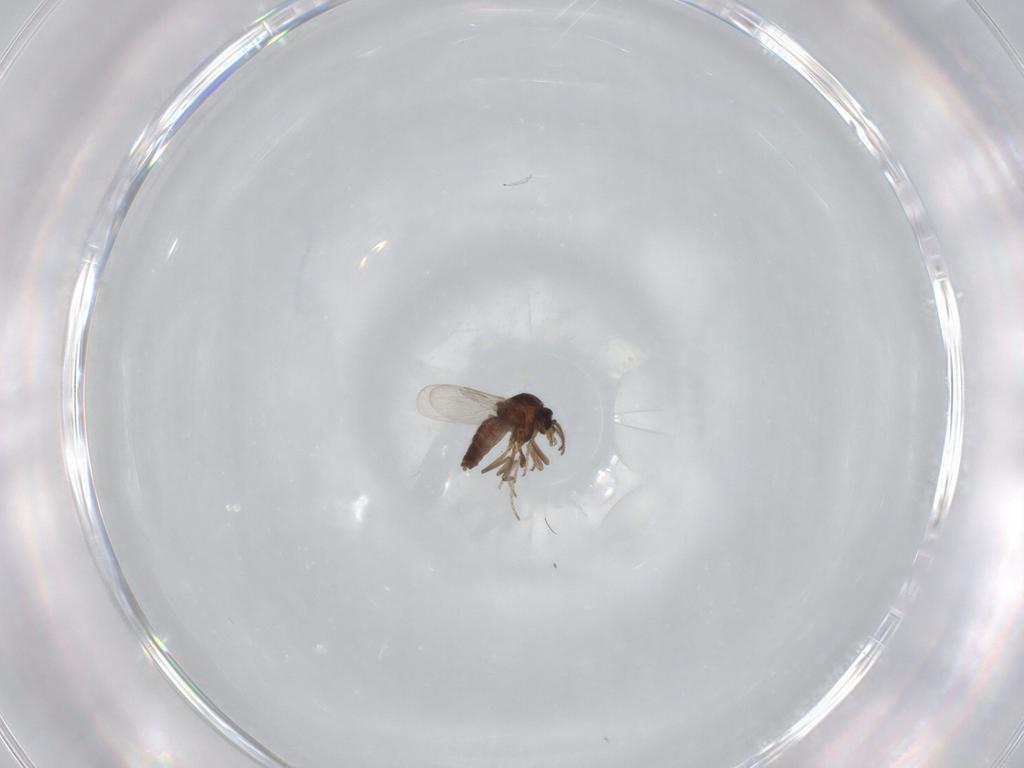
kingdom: Animalia
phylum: Arthropoda
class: Insecta
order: Diptera
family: Ceratopogonidae
